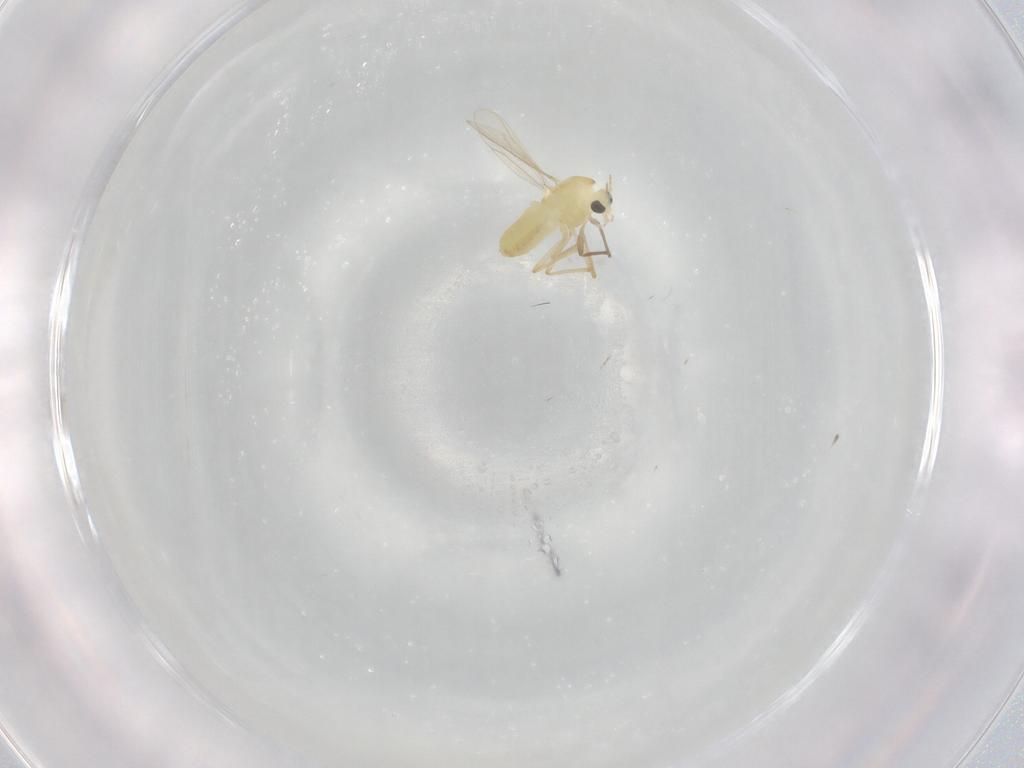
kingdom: Animalia
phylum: Arthropoda
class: Insecta
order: Diptera
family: Chironomidae
